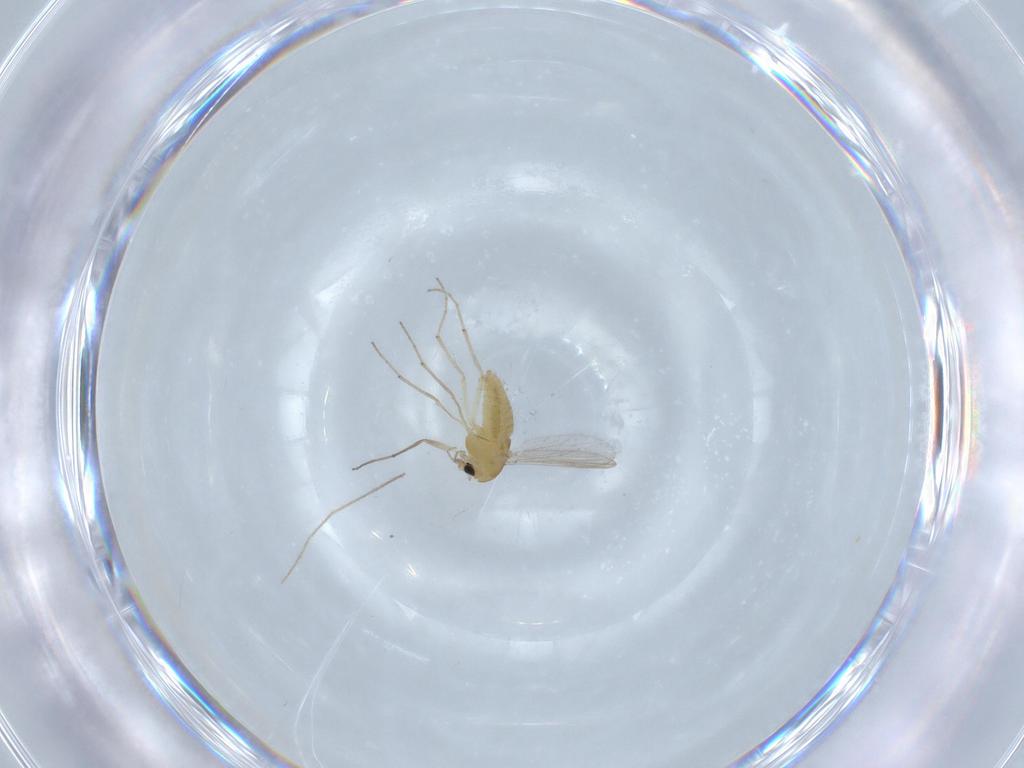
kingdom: Animalia
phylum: Arthropoda
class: Insecta
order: Diptera
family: Chironomidae
